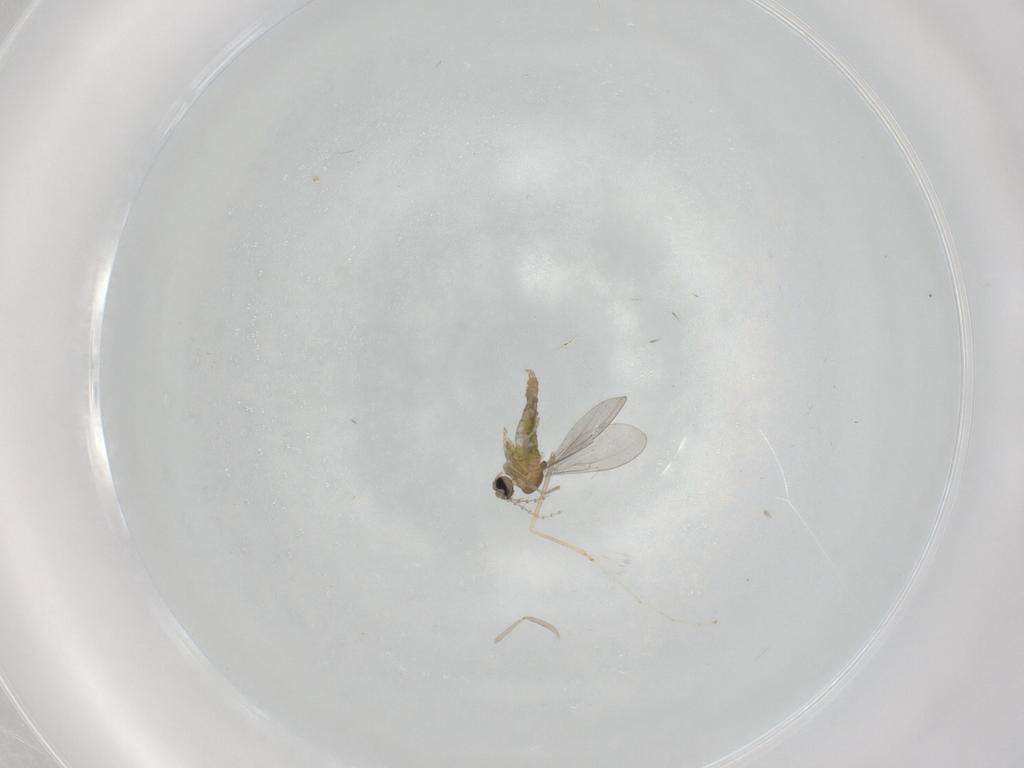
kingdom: Animalia
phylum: Arthropoda
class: Insecta
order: Diptera
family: Cecidomyiidae
